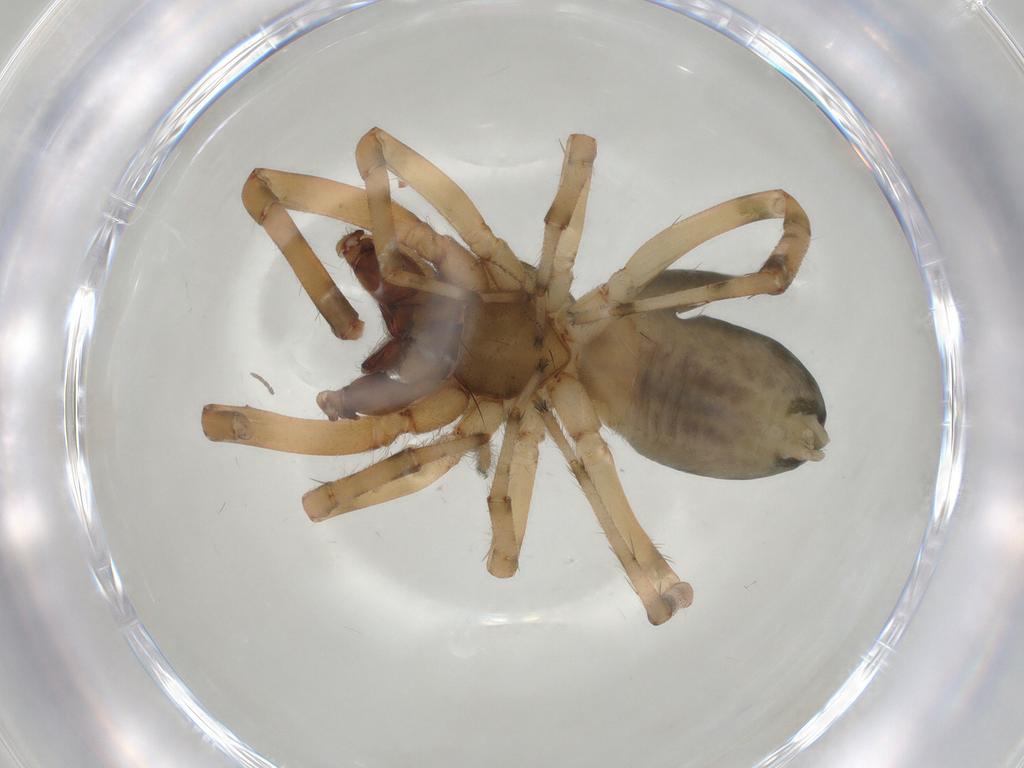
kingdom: Animalia
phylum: Arthropoda
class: Arachnida
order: Araneae
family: Trachelidae
